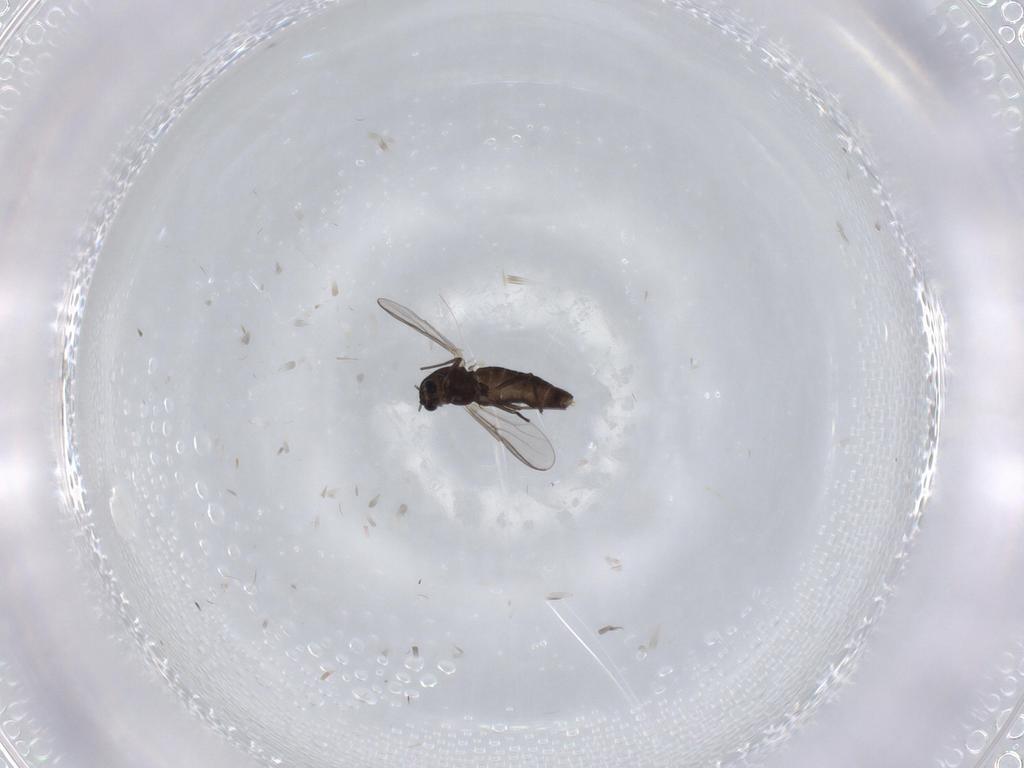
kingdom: Animalia
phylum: Arthropoda
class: Insecta
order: Diptera
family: Chironomidae
